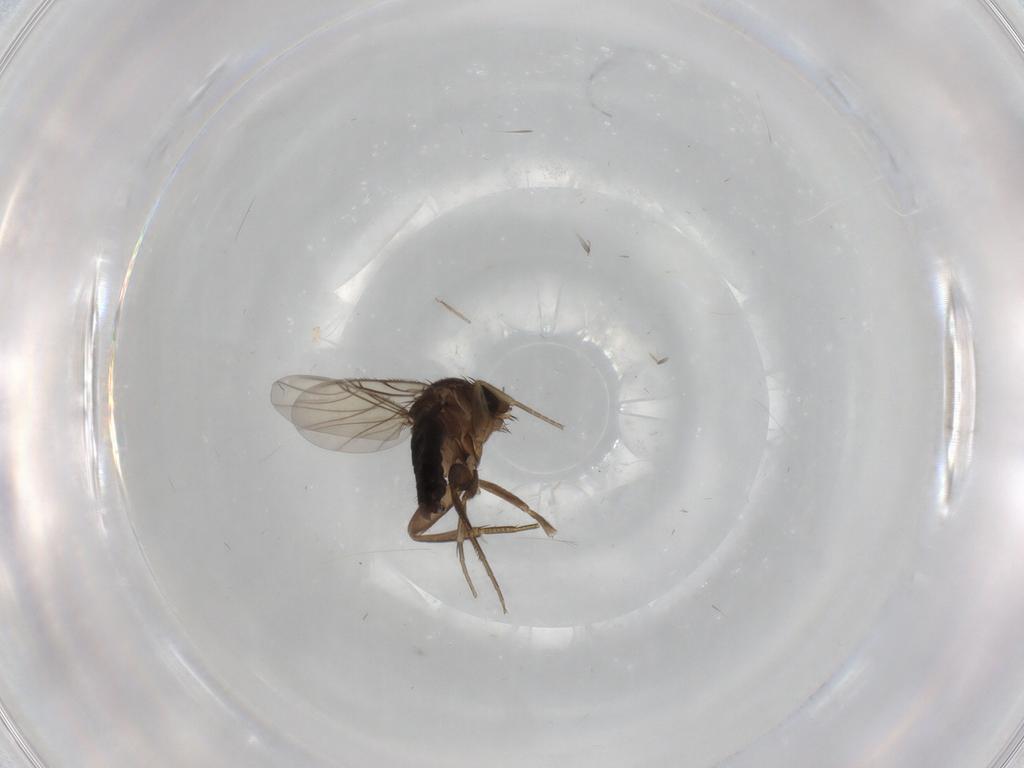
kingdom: Animalia
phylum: Arthropoda
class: Insecta
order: Diptera
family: Phoridae
